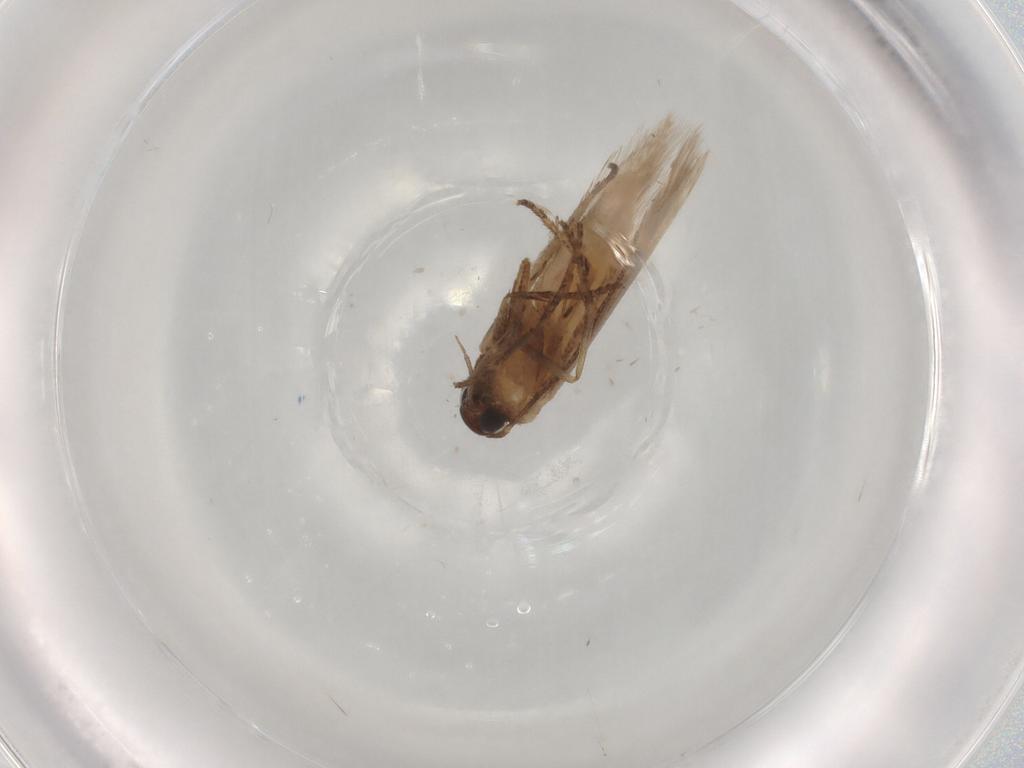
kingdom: Animalia
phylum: Arthropoda
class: Insecta
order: Lepidoptera
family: Gelechiidae
